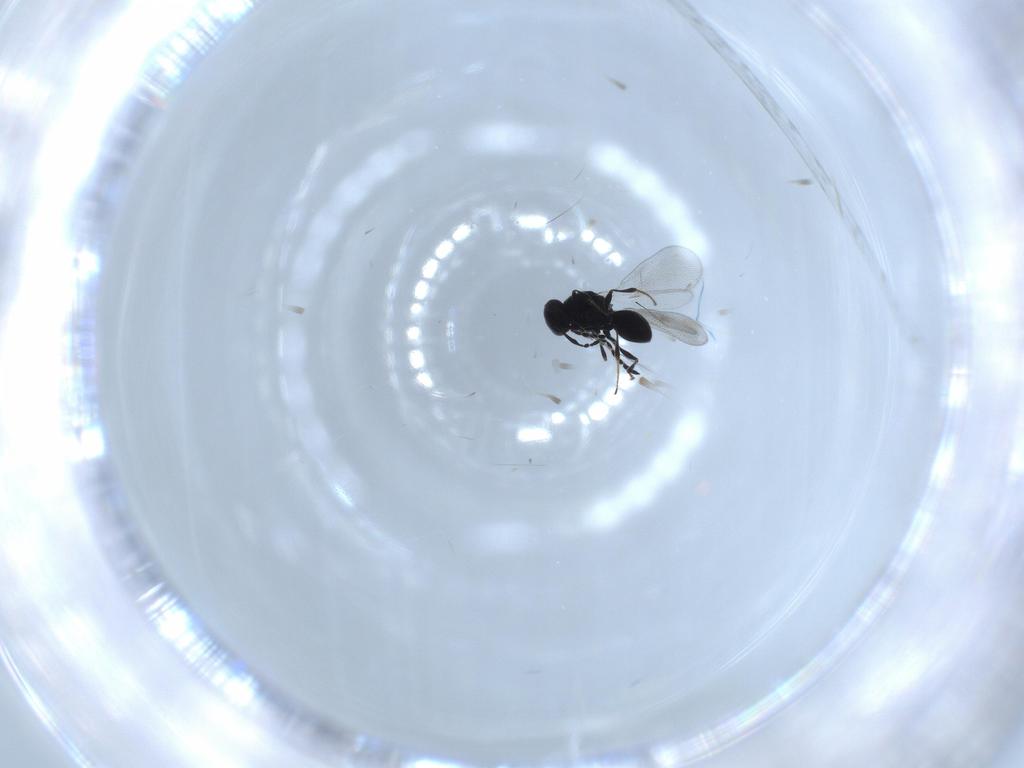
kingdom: Animalia
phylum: Arthropoda
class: Insecta
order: Hymenoptera
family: Platygastridae
